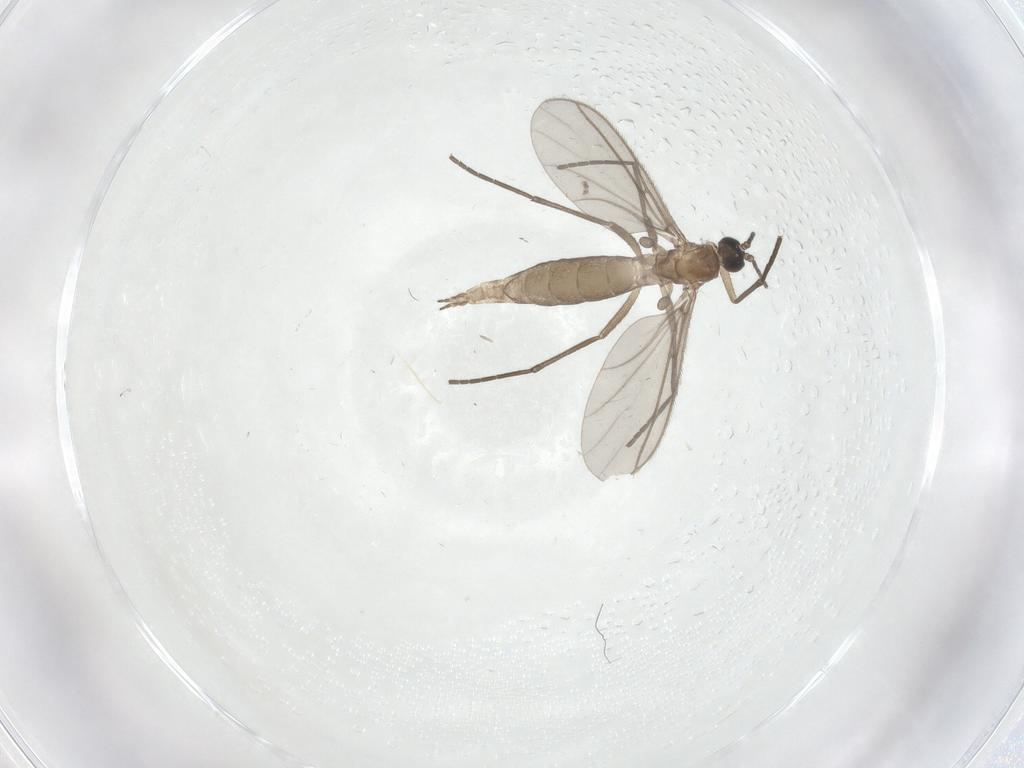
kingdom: Animalia
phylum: Arthropoda
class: Insecta
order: Diptera
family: Sciaridae
